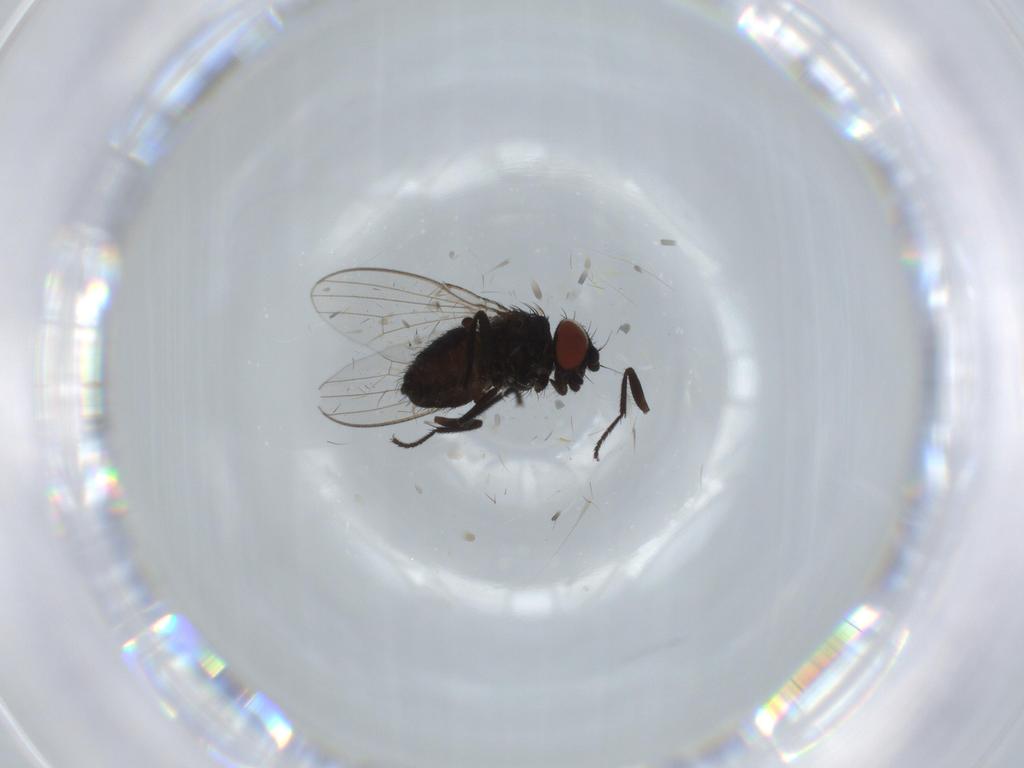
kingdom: Animalia
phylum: Arthropoda
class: Insecta
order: Diptera
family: Milichiidae
